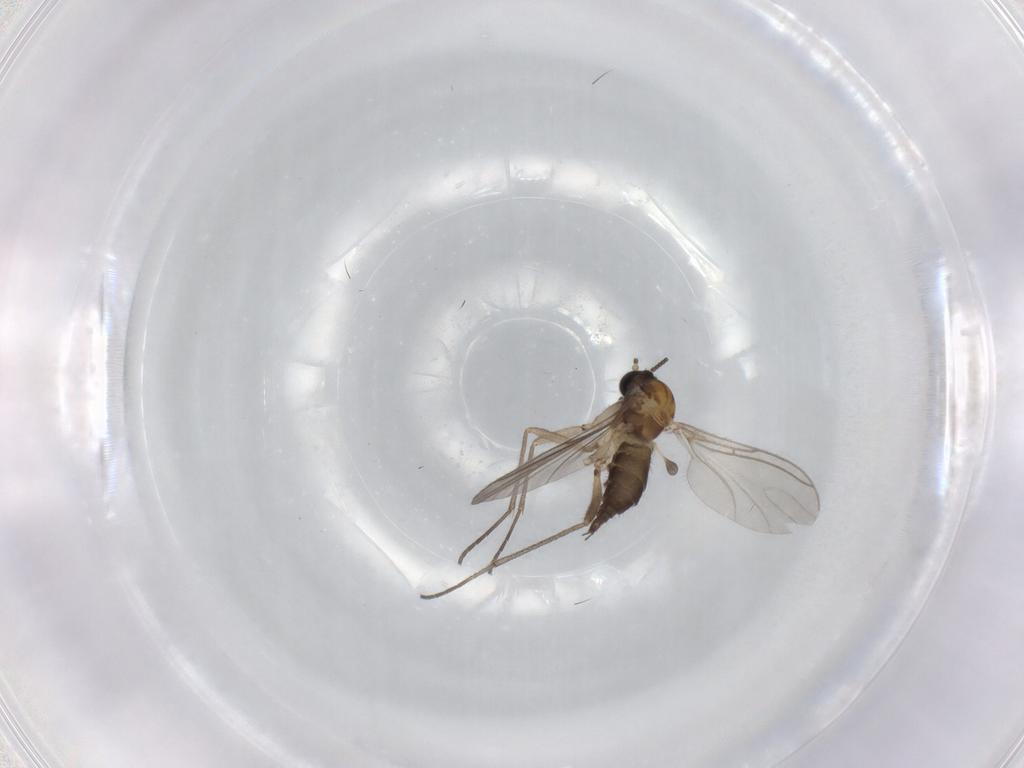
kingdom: Animalia
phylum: Arthropoda
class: Insecta
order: Diptera
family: Sciaridae
